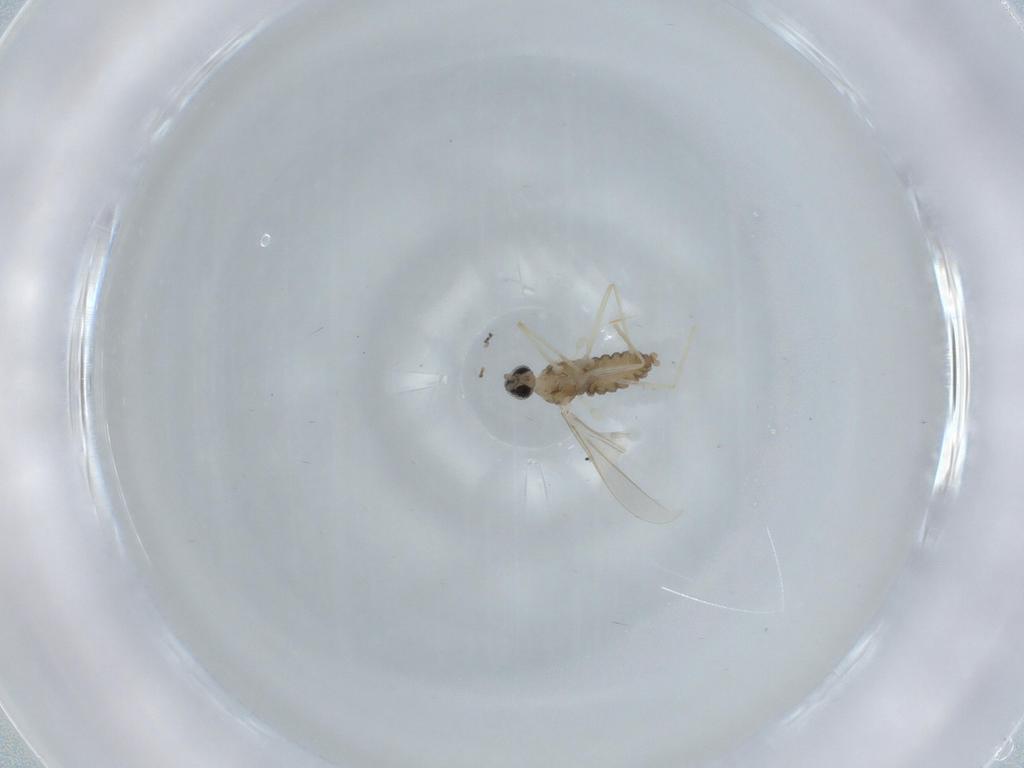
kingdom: Animalia
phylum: Arthropoda
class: Insecta
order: Diptera
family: Cecidomyiidae
